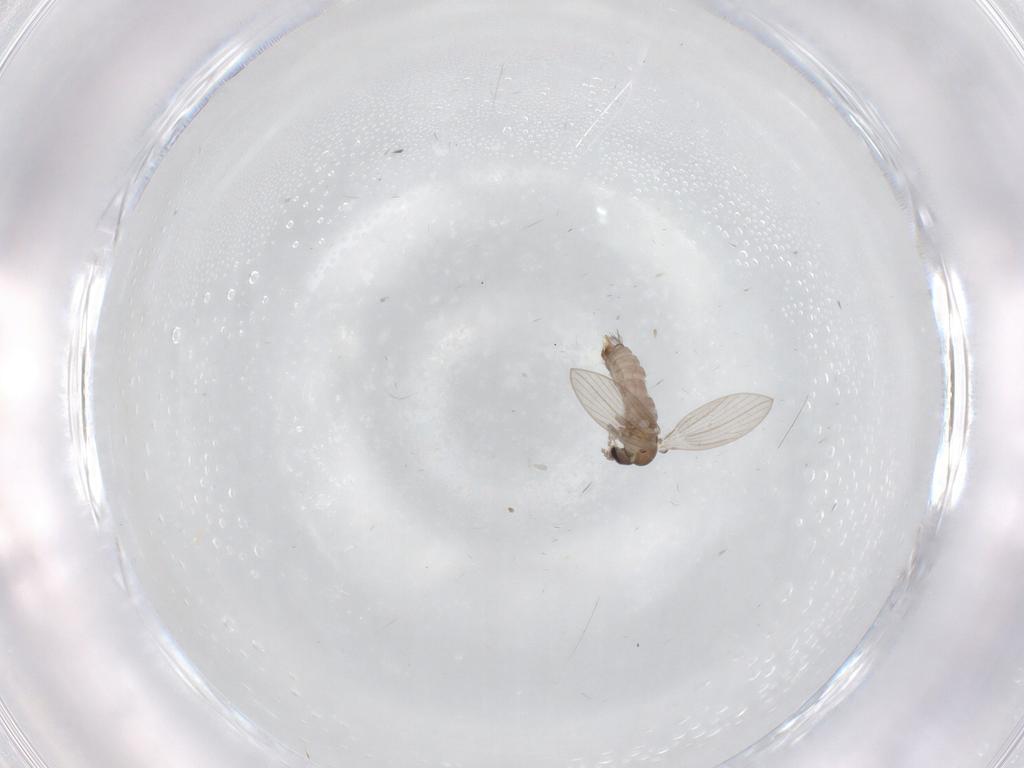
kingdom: Animalia
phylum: Arthropoda
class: Insecta
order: Diptera
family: Psychodidae
